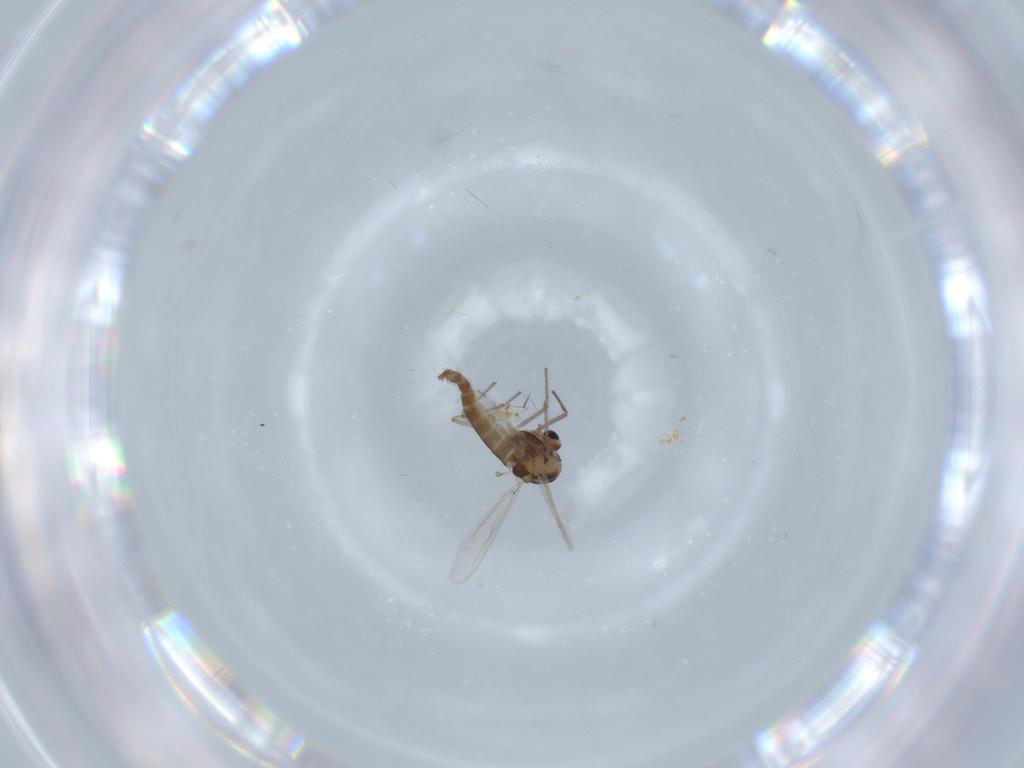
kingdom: Animalia
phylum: Arthropoda
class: Insecta
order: Diptera
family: Chironomidae
